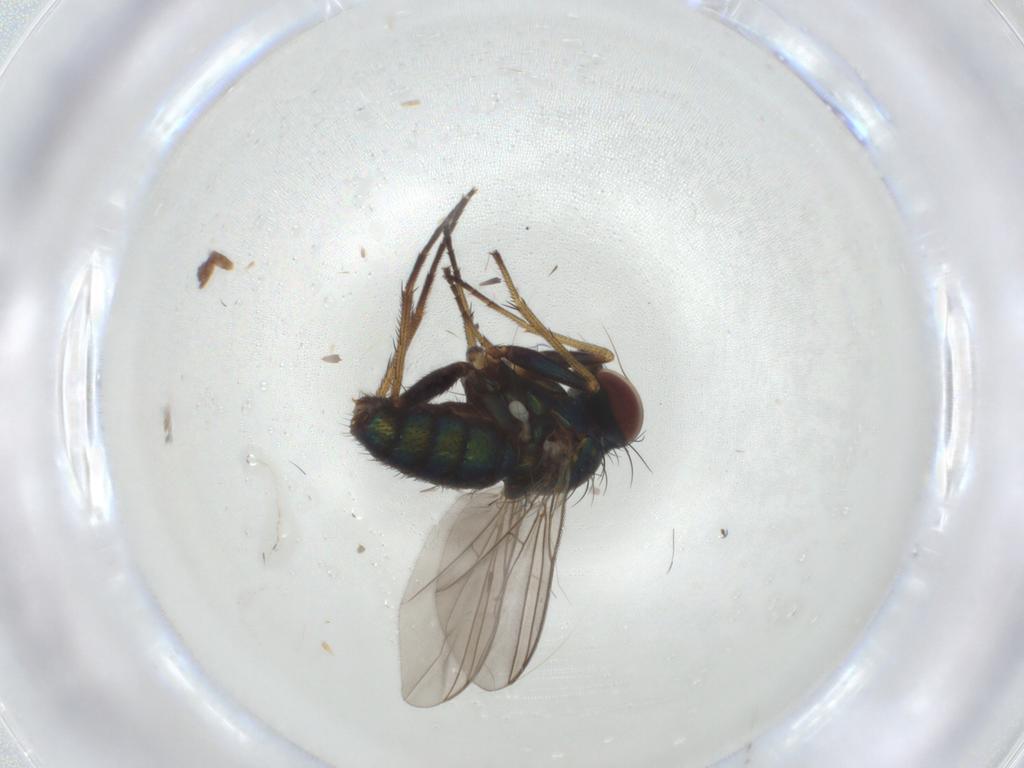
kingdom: Animalia
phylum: Arthropoda
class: Insecta
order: Diptera
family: Dolichopodidae
